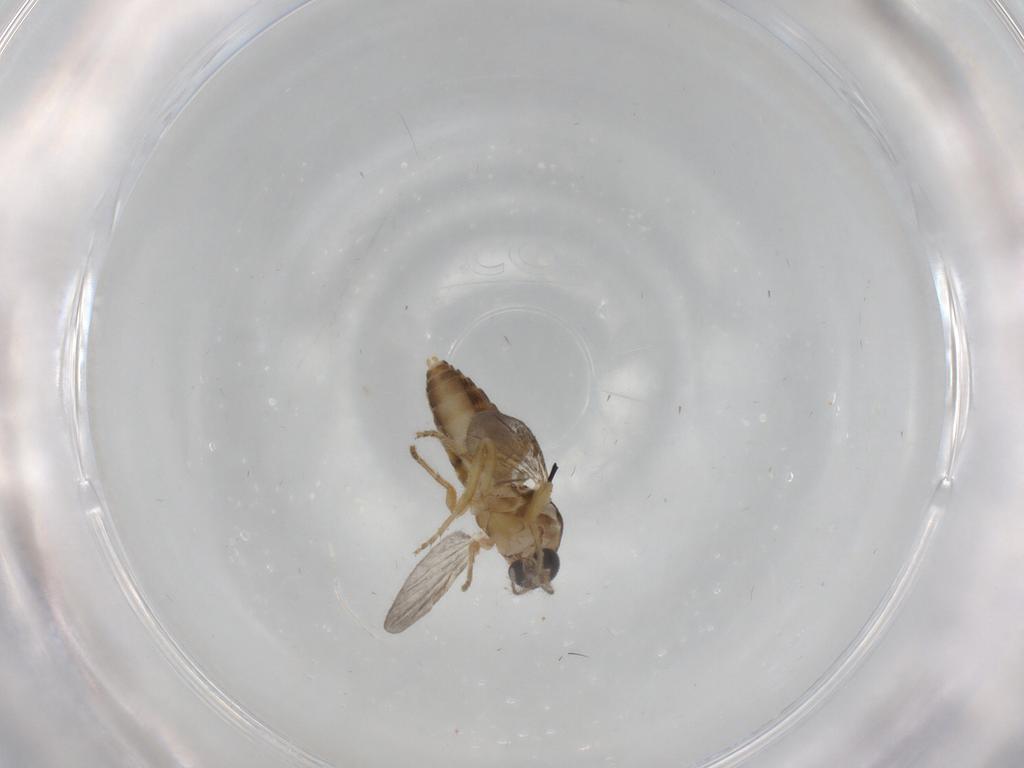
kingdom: Animalia
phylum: Arthropoda
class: Insecta
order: Diptera
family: Ceratopogonidae
